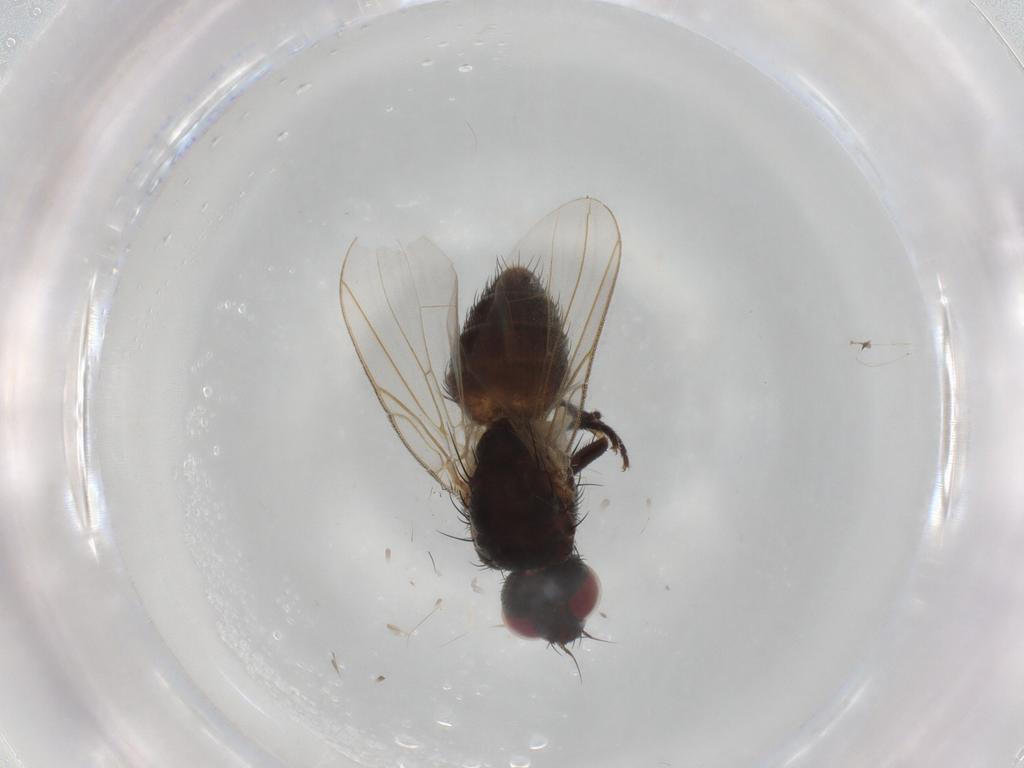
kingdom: Animalia
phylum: Arthropoda
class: Insecta
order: Diptera
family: Muscidae
